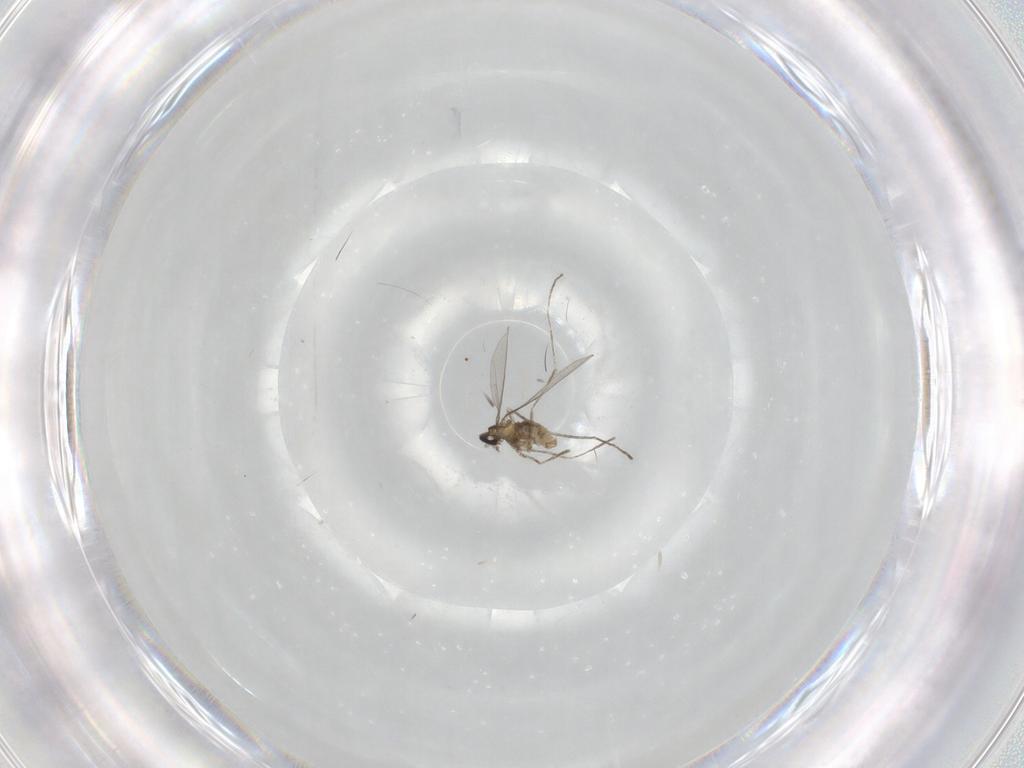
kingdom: Animalia
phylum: Arthropoda
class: Insecta
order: Diptera
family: Cecidomyiidae
